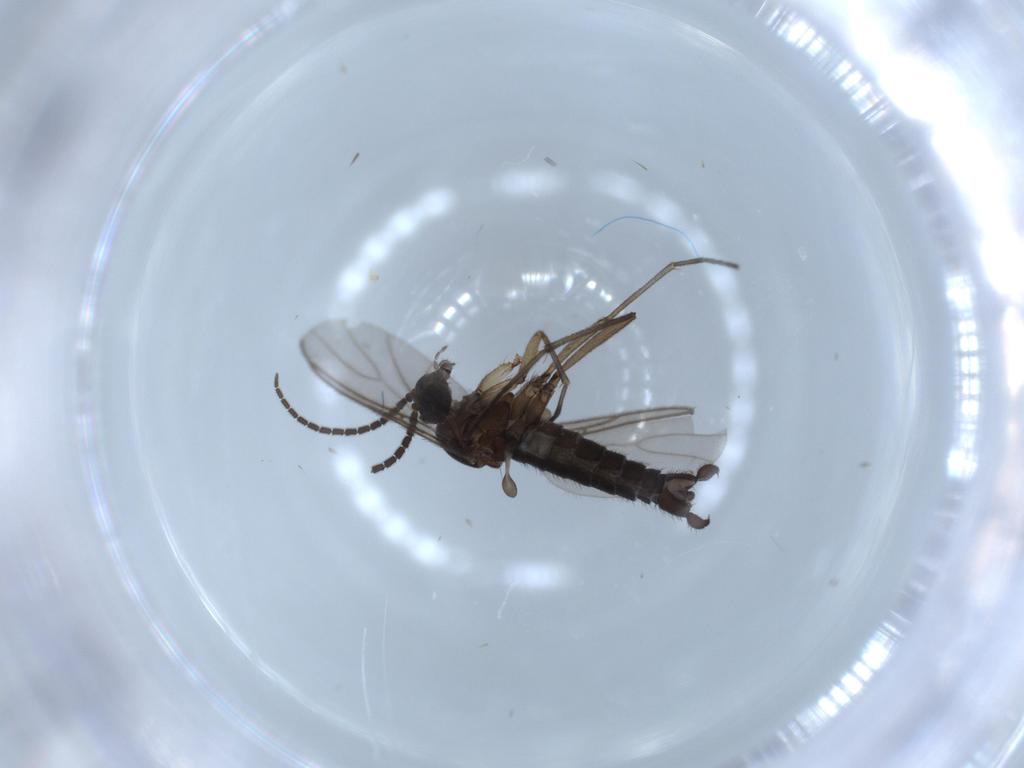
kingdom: Animalia
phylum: Arthropoda
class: Insecta
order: Diptera
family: Sciaridae
